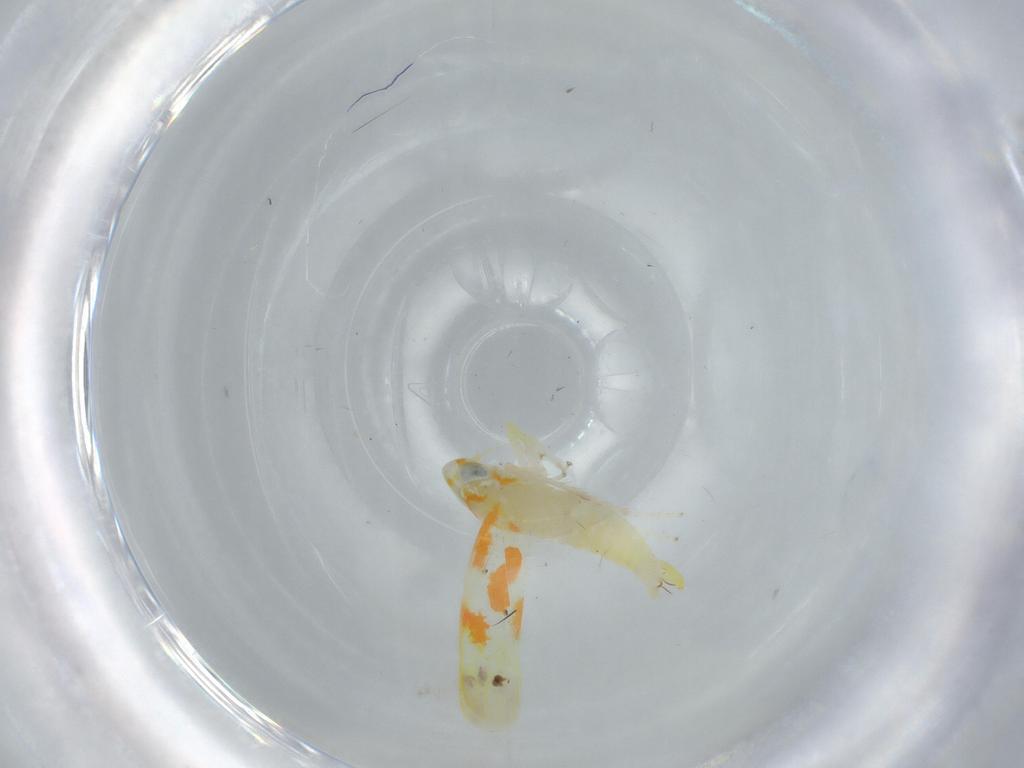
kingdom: Animalia
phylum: Arthropoda
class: Insecta
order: Hemiptera
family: Cicadellidae
